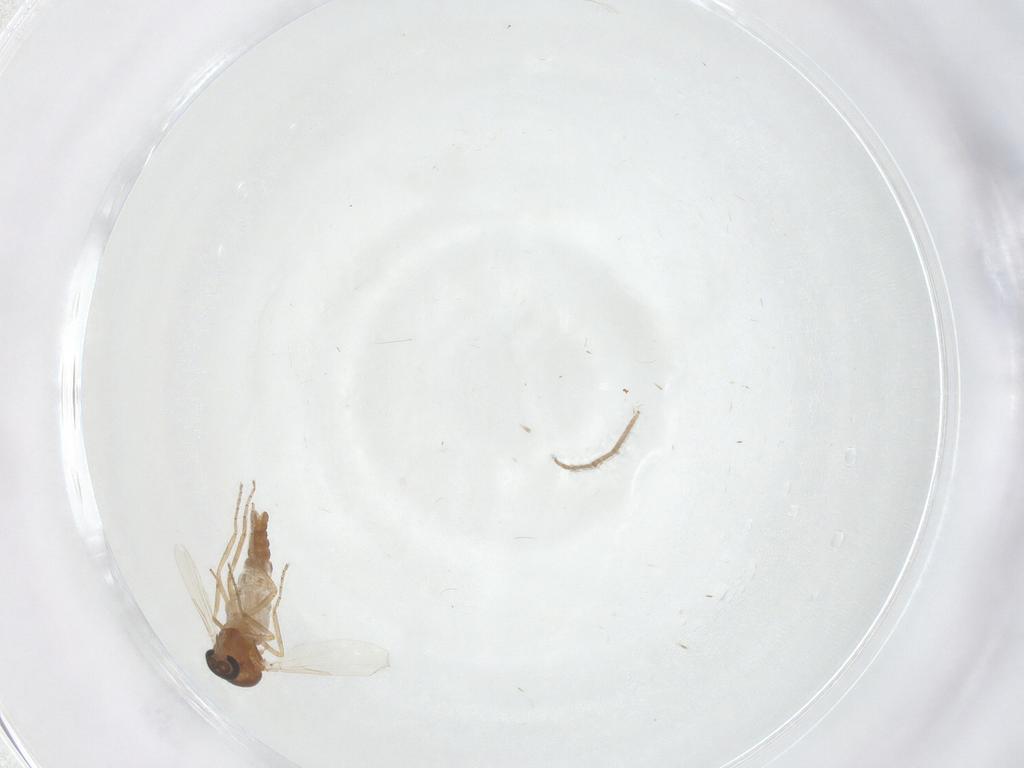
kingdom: Animalia
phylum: Arthropoda
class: Insecta
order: Diptera
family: Ceratopogonidae
